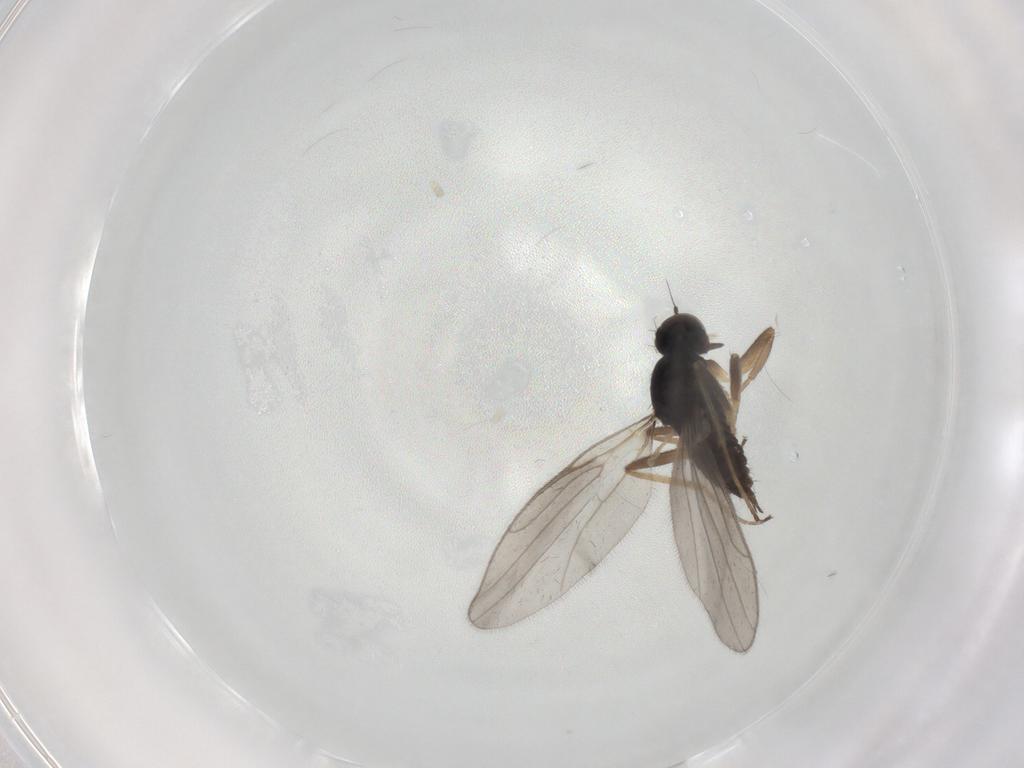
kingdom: Animalia
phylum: Arthropoda
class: Insecta
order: Diptera
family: Hybotidae
